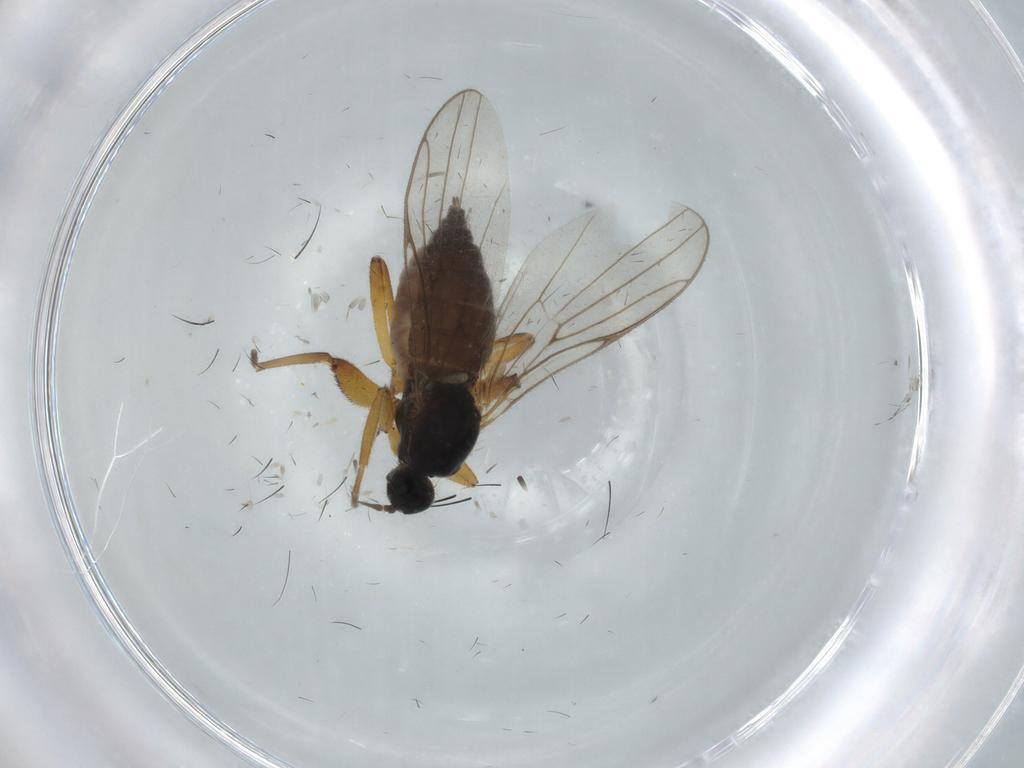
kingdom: Animalia
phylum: Arthropoda
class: Insecta
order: Diptera
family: Hybotidae
